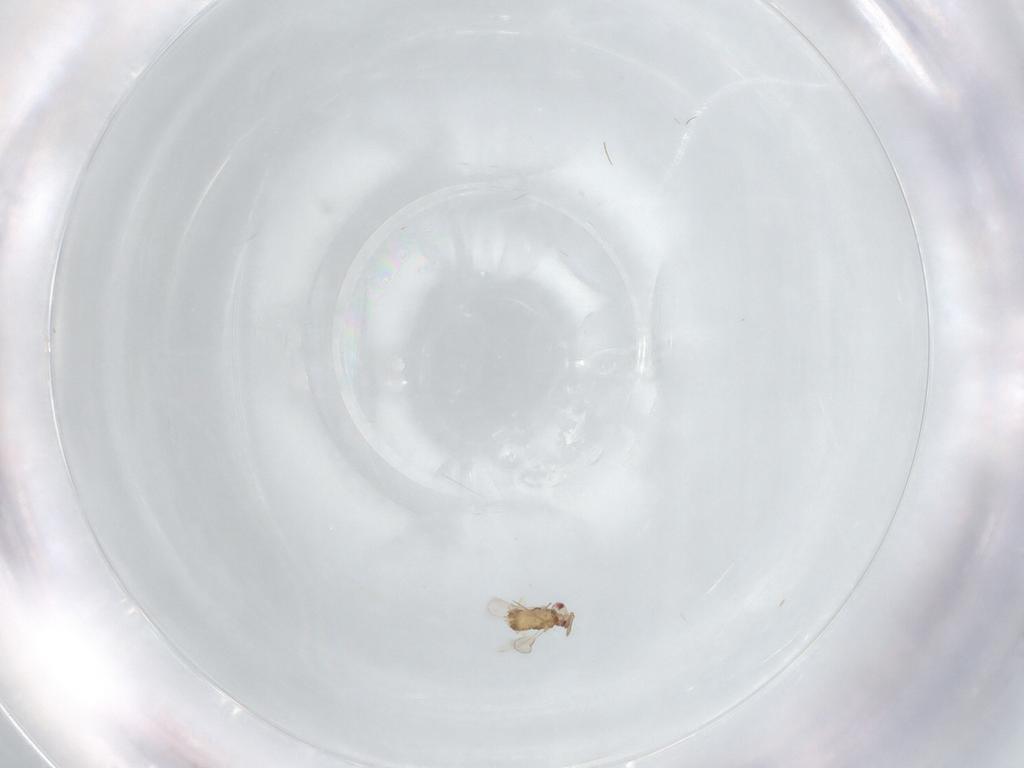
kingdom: Animalia
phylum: Arthropoda
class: Insecta
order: Hymenoptera
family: Aphelinidae
